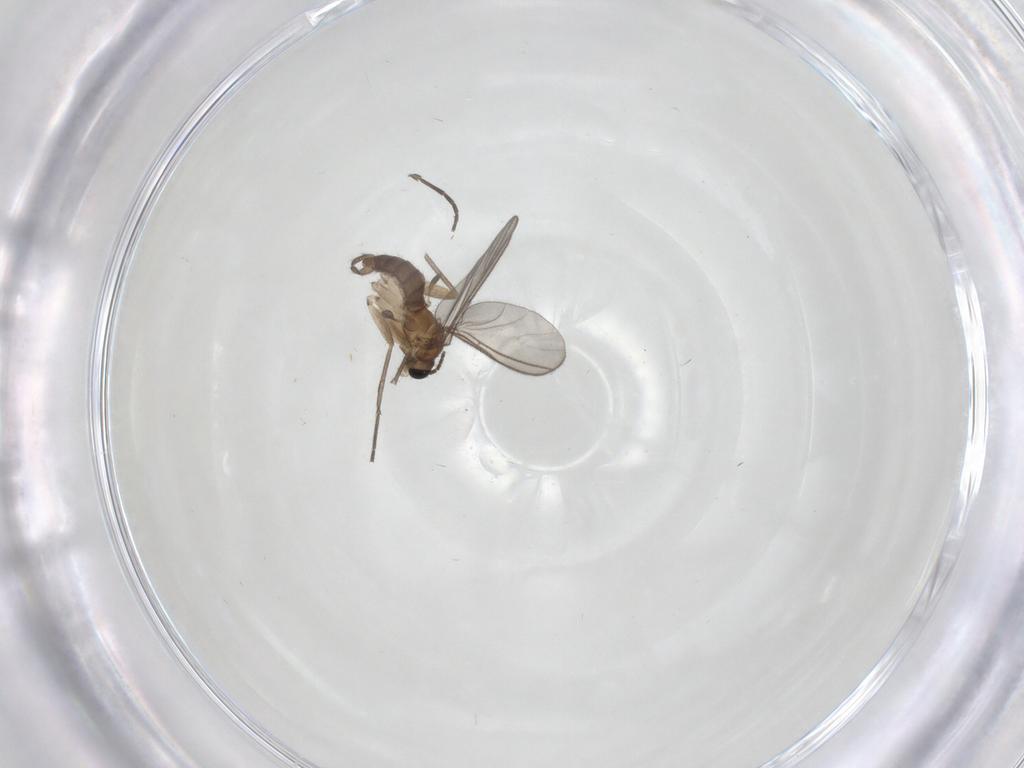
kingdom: Animalia
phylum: Arthropoda
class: Insecta
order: Diptera
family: Sciaridae
